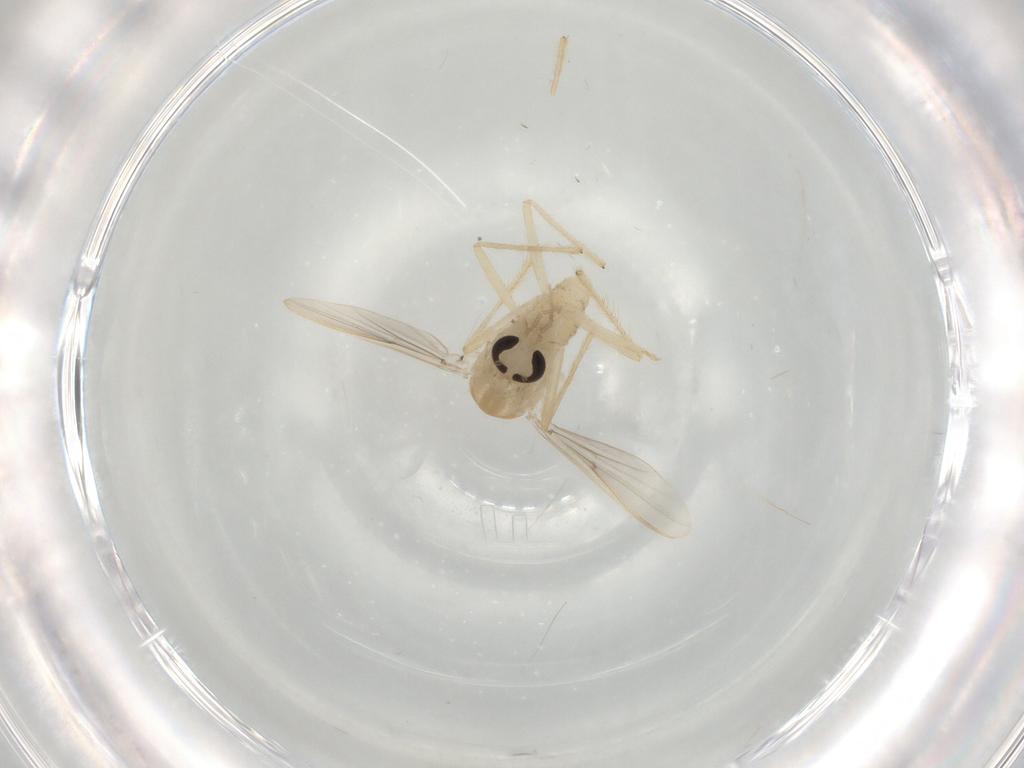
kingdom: Animalia
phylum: Arthropoda
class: Insecta
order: Diptera
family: Chironomidae
